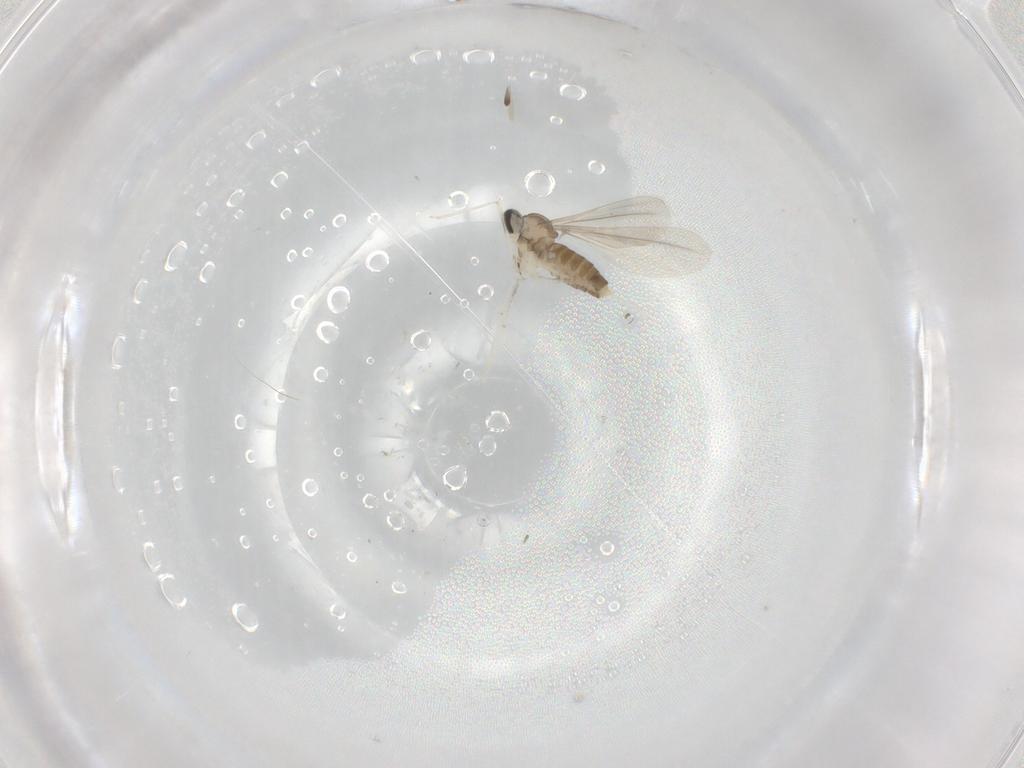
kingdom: Animalia
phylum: Arthropoda
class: Insecta
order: Diptera
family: Cecidomyiidae
